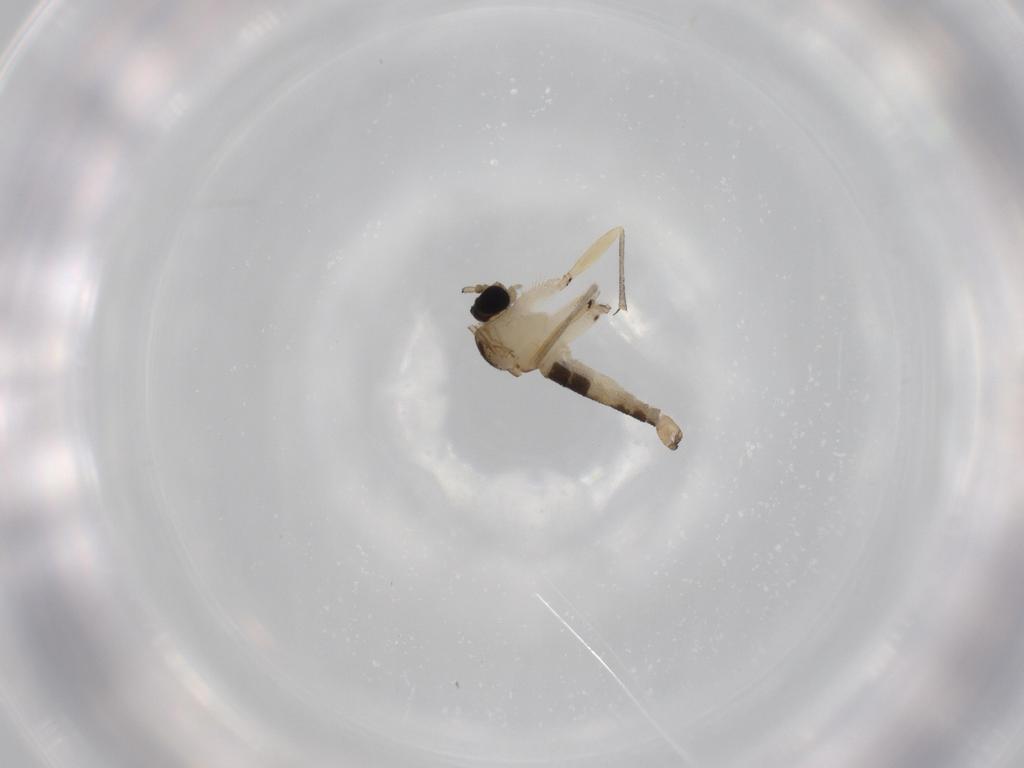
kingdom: Animalia
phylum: Arthropoda
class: Insecta
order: Diptera
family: Sciaridae
